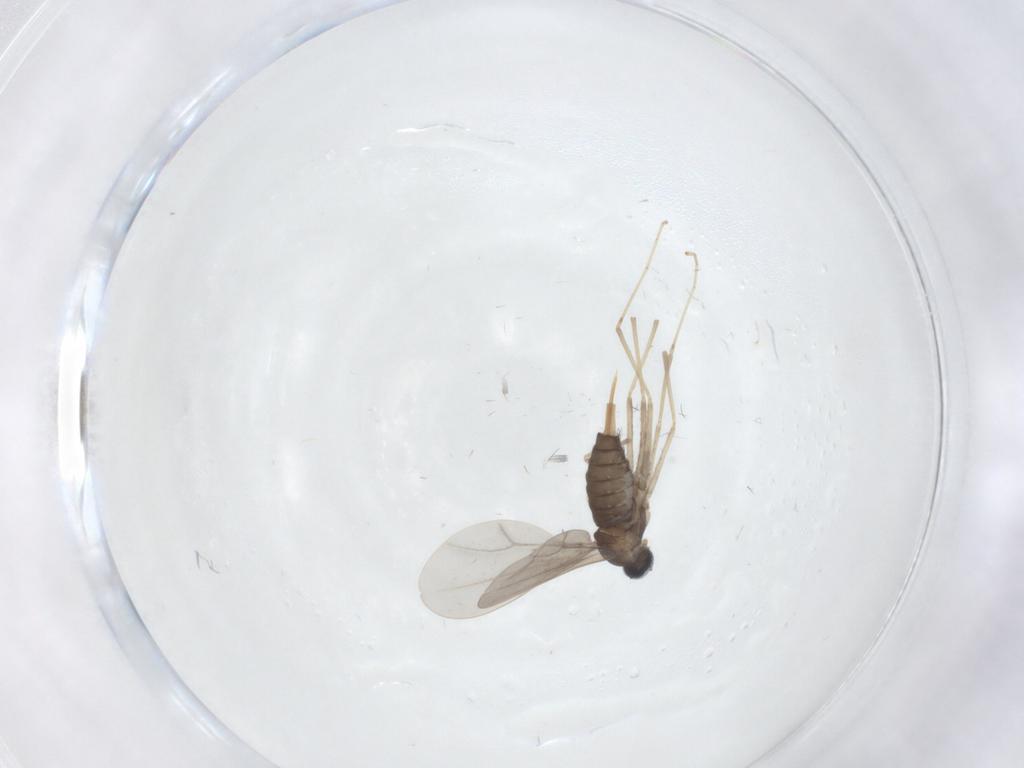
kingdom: Animalia
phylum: Arthropoda
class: Insecta
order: Diptera
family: Cecidomyiidae
